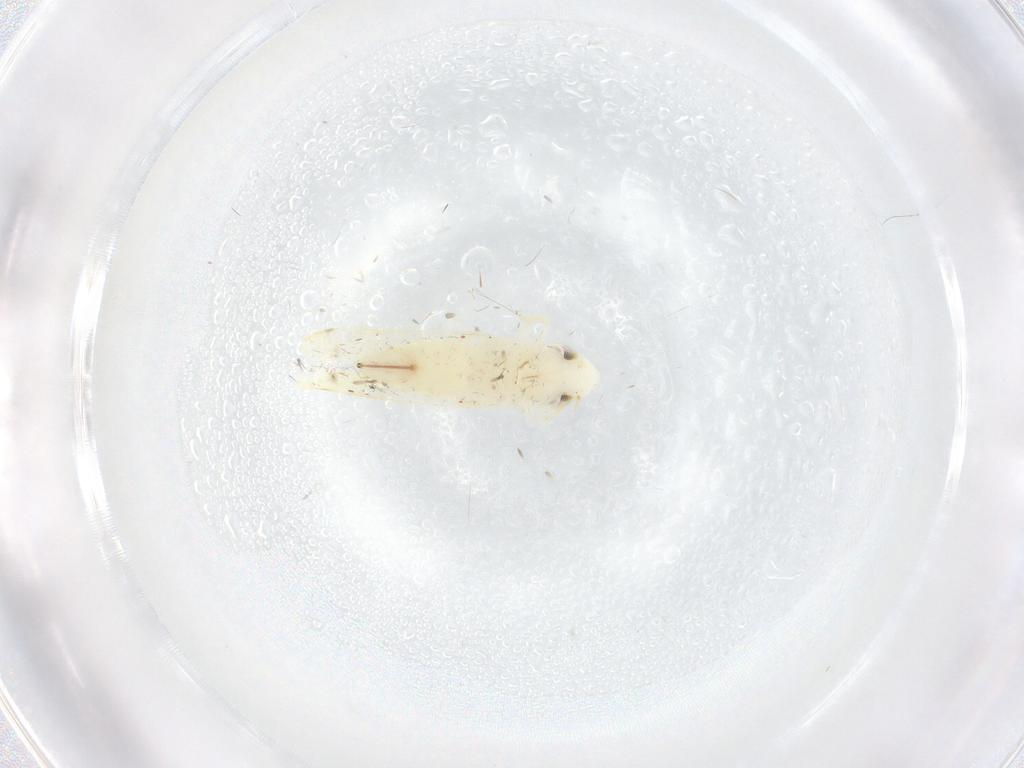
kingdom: Animalia
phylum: Arthropoda
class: Insecta
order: Hemiptera
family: Cicadellidae
